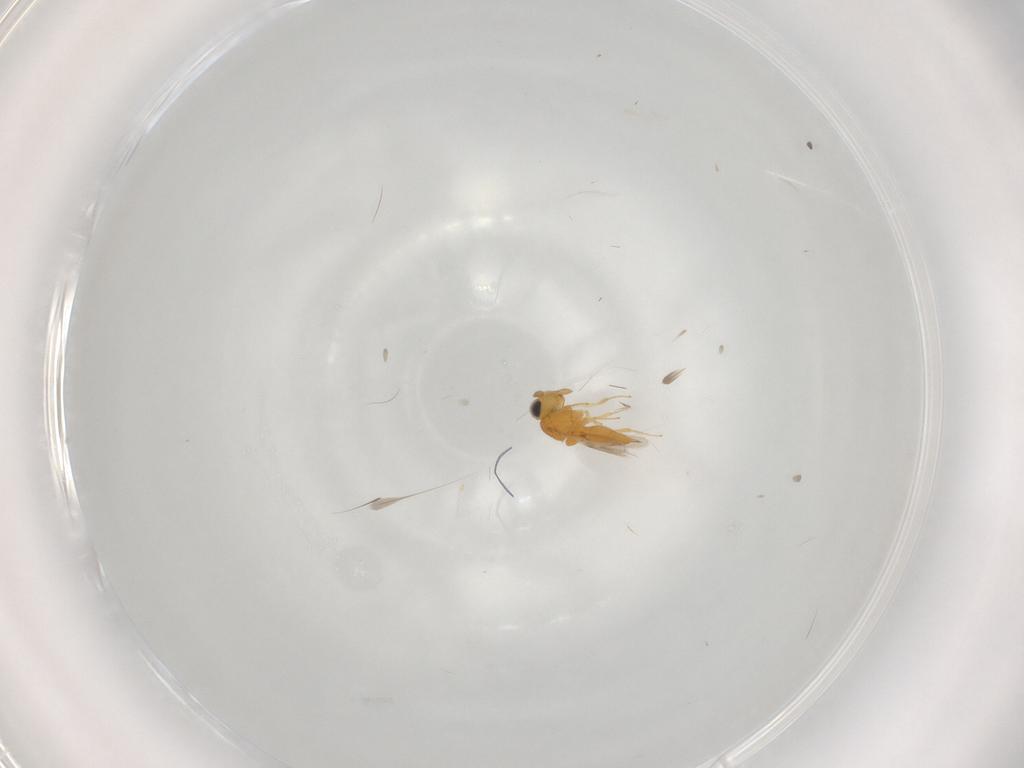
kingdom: Animalia
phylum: Arthropoda
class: Insecta
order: Hymenoptera
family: Scelionidae
